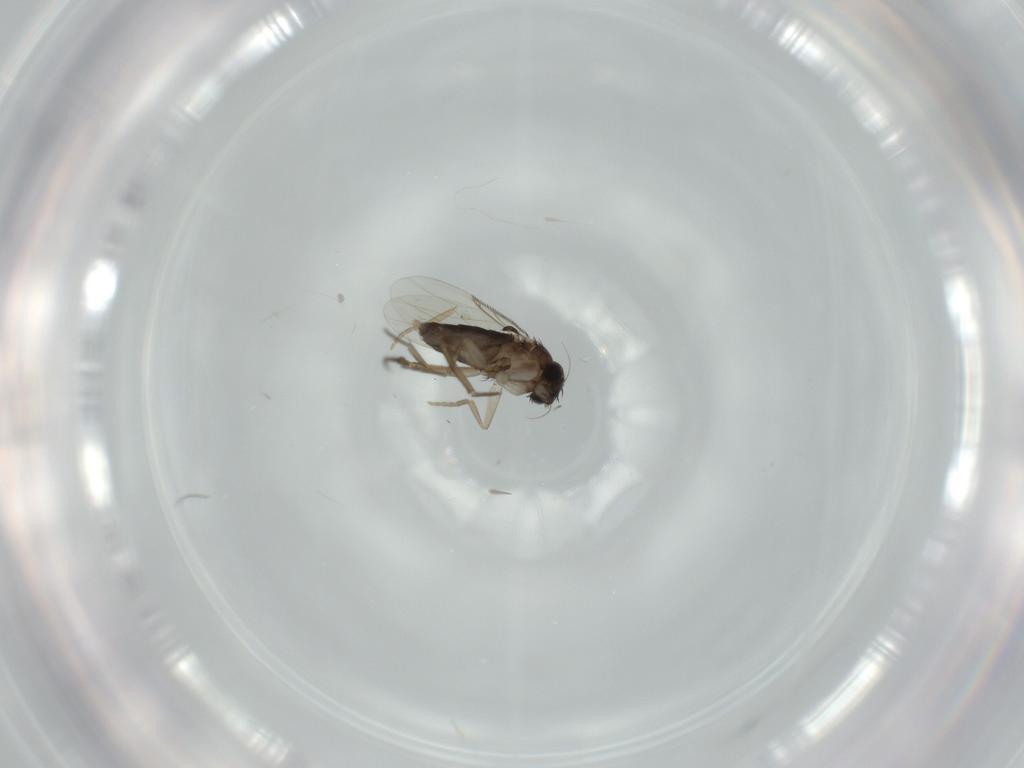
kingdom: Animalia
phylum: Arthropoda
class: Insecta
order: Diptera
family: Phoridae
